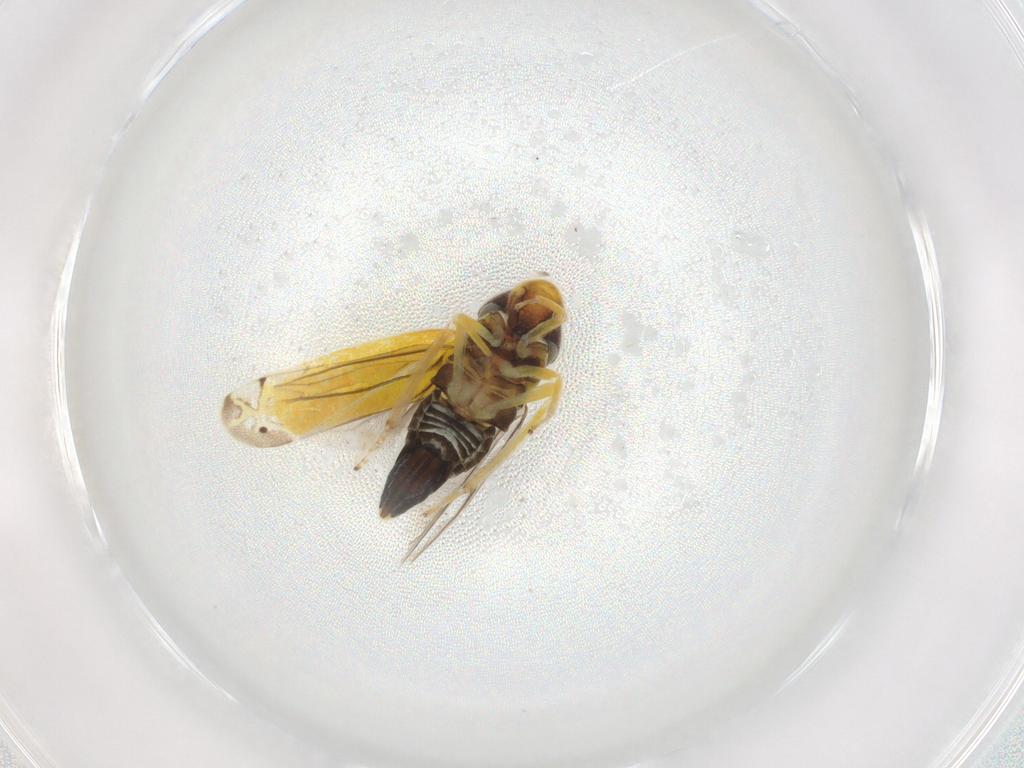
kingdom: Animalia
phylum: Arthropoda
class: Insecta
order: Hemiptera
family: Cicadellidae
